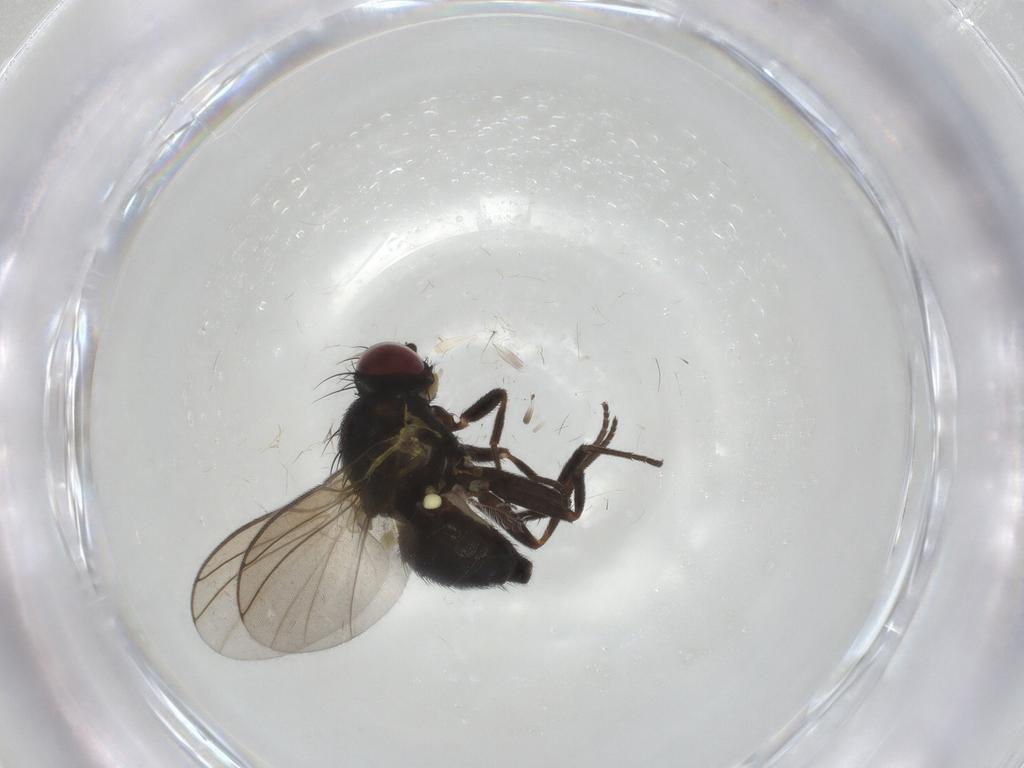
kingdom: Animalia
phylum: Arthropoda
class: Insecta
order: Diptera
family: Agromyzidae
